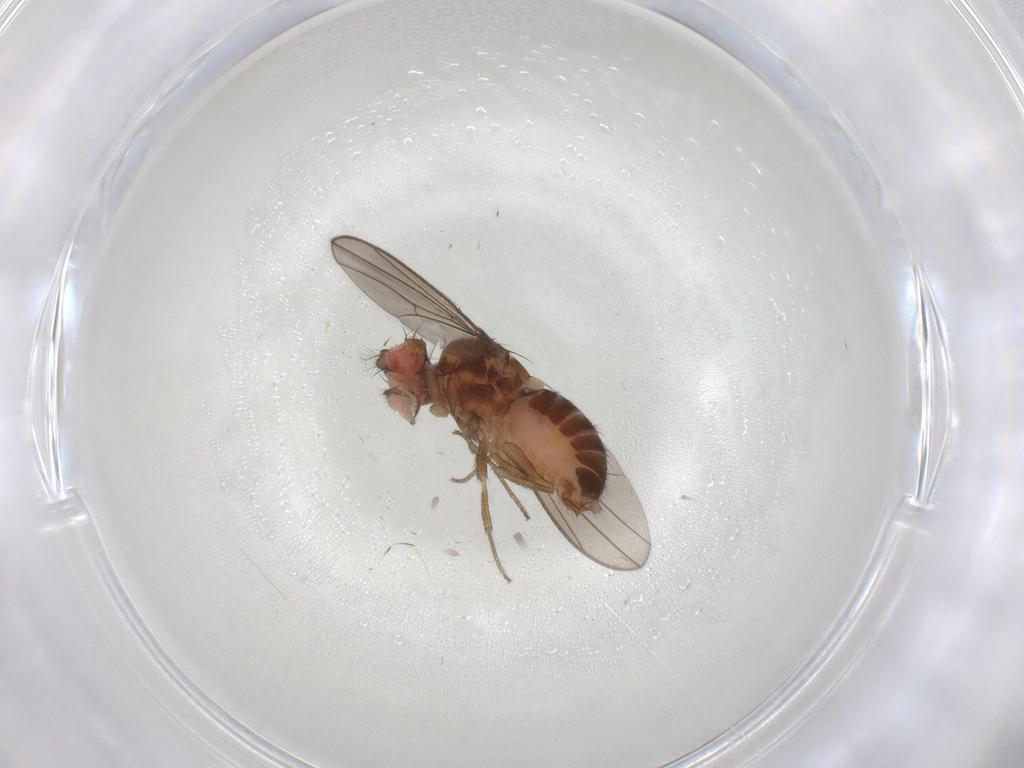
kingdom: Animalia
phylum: Arthropoda
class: Insecta
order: Diptera
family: Drosophilidae
